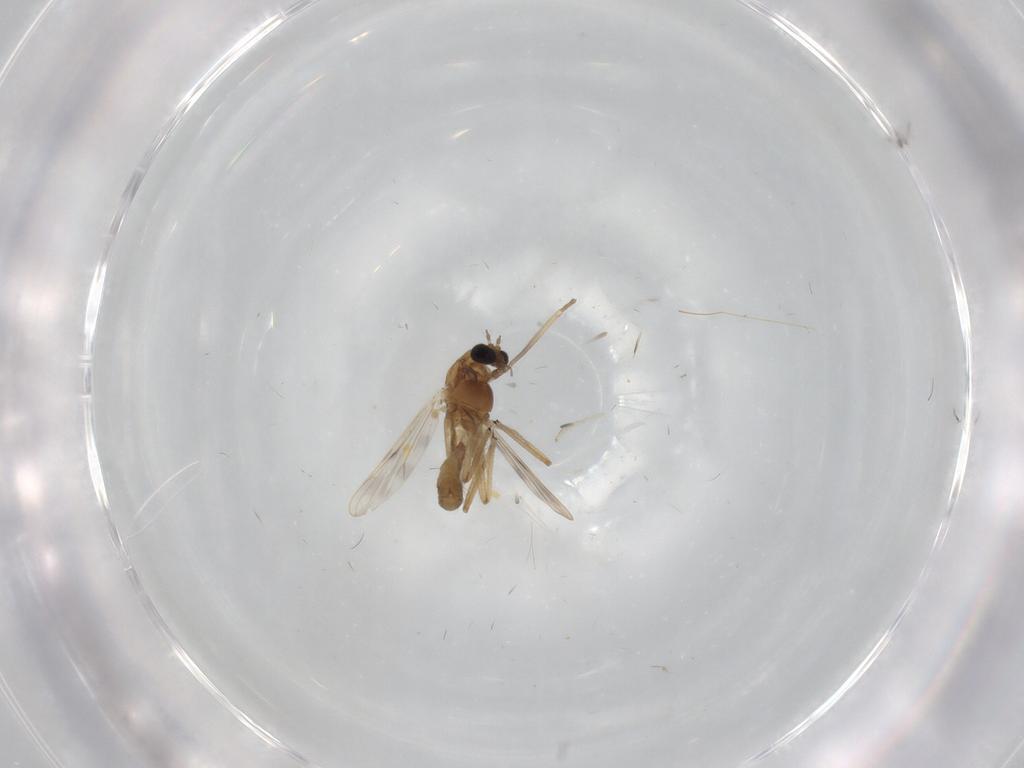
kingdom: Animalia
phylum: Arthropoda
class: Insecta
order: Diptera
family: Chironomidae
